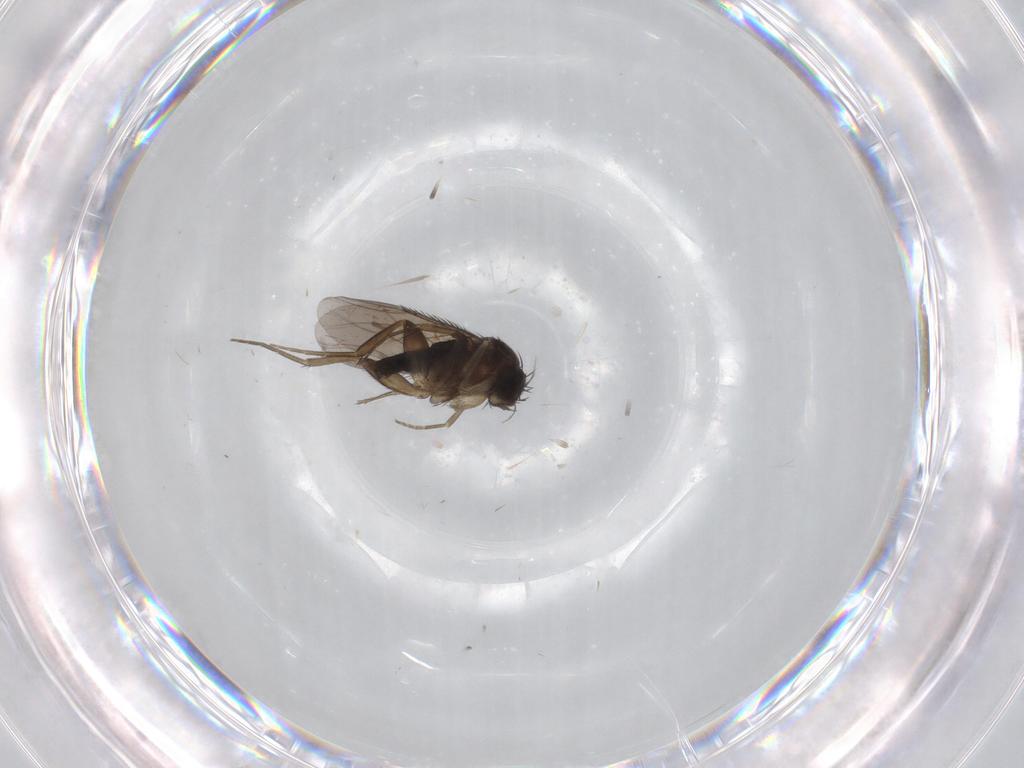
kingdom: Animalia
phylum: Arthropoda
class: Insecta
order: Diptera
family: Phoridae
